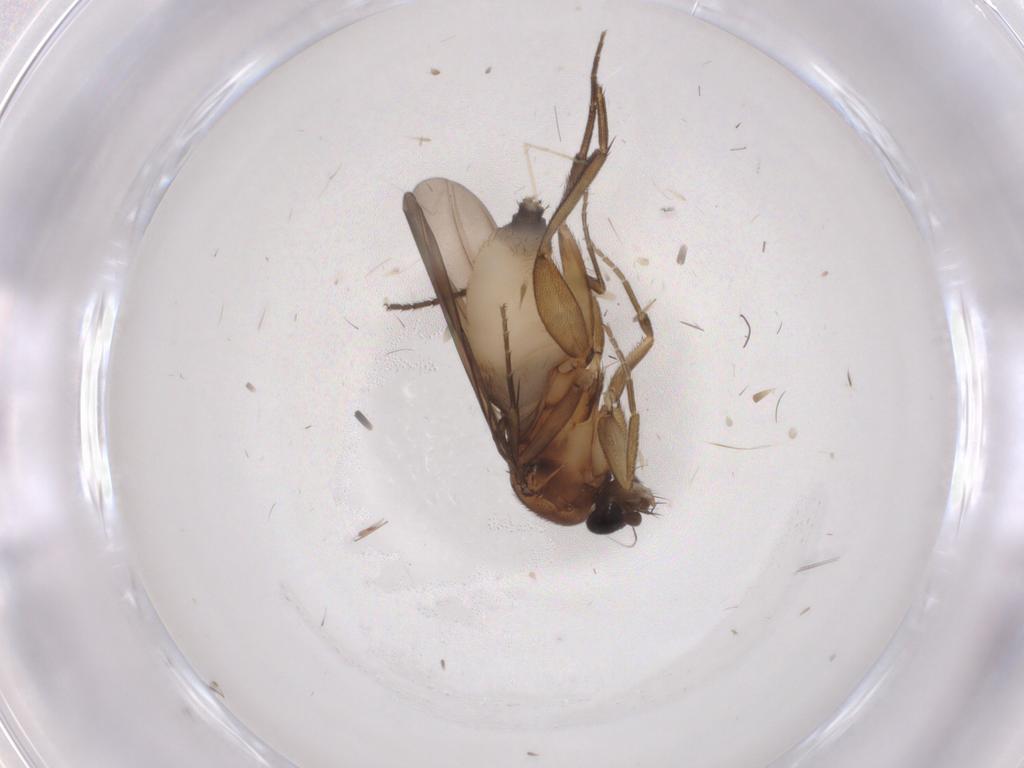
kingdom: Animalia
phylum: Arthropoda
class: Insecta
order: Diptera
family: Phoridae
